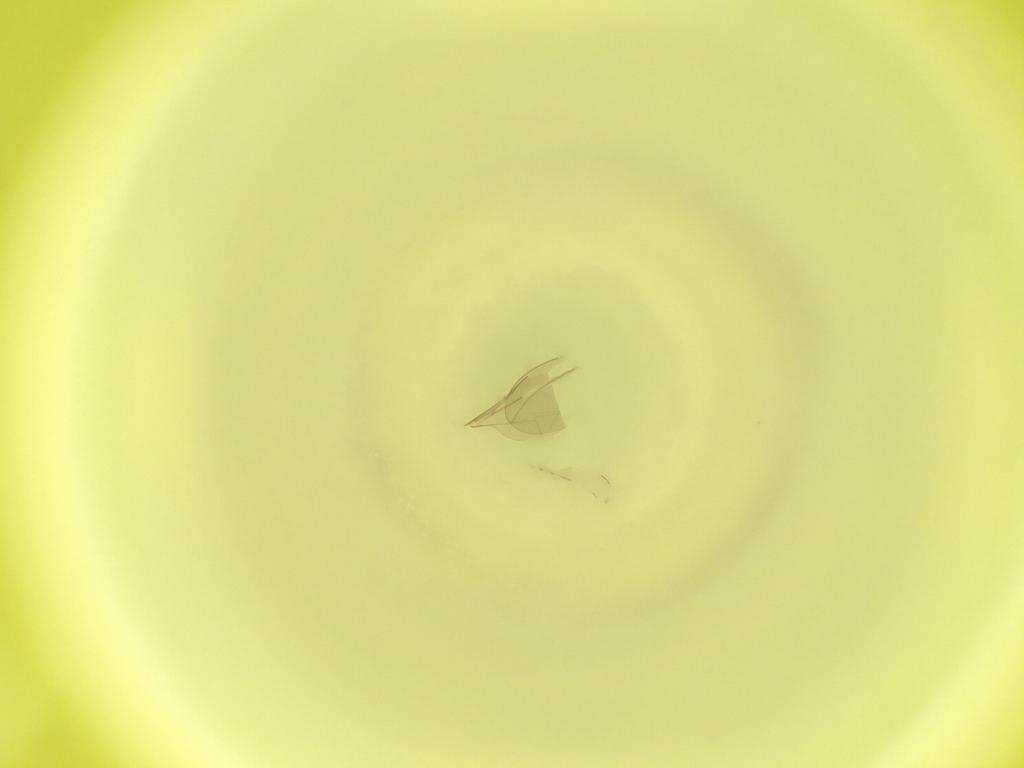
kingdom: Animalia
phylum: Arthropoda
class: Insecta
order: Diptera
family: Cecidomyiidae
